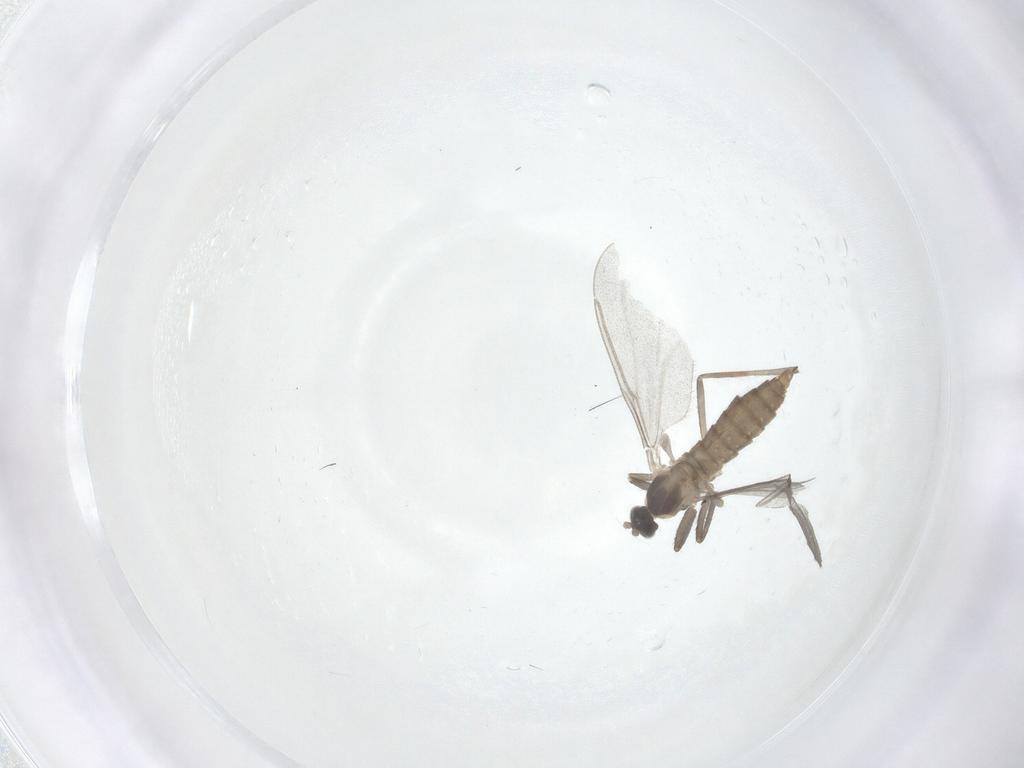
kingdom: Animalia
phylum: Arthropoda
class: Insecta
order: Diptera
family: Cecidomyiidae
